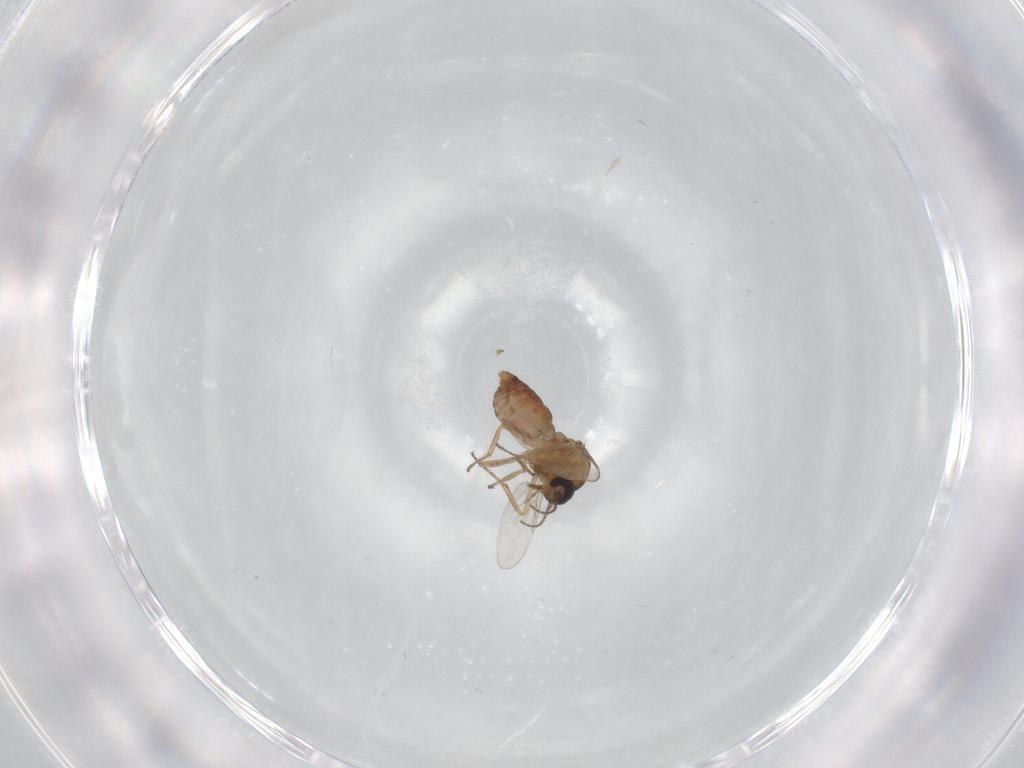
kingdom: Animalia
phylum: Arthropoda
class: Insecta
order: Diptera
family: Ceratopogonidae
